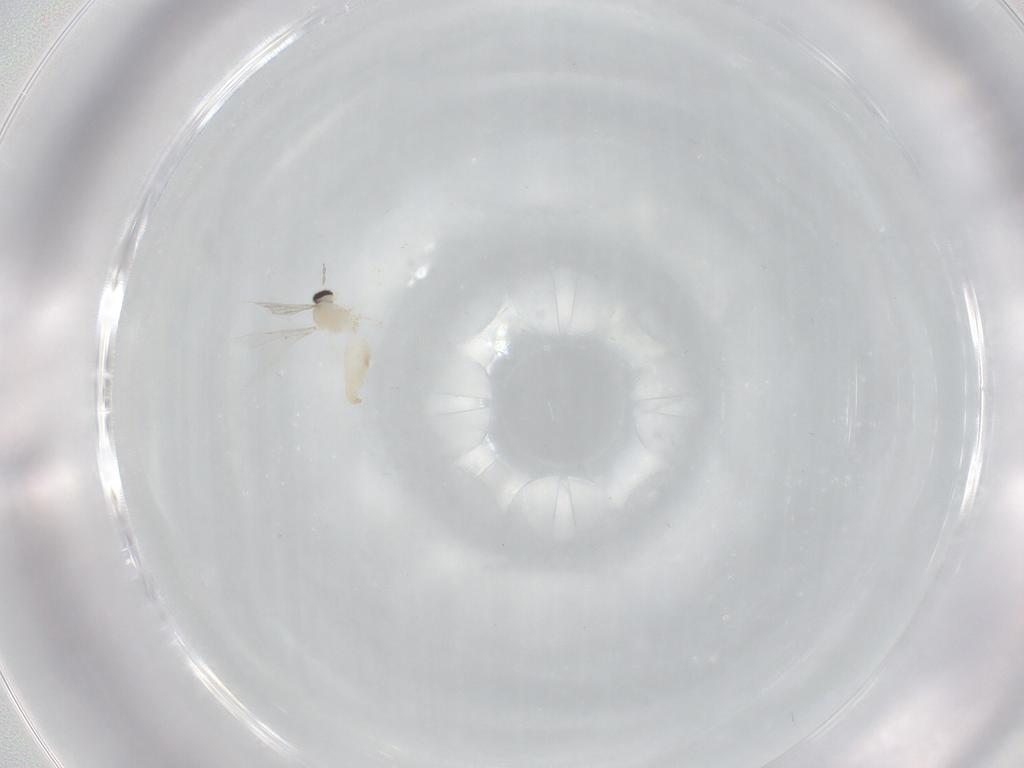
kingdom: Animalia
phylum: Arthropoda
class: Insecta
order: Diptera
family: Cecidomyiidae
